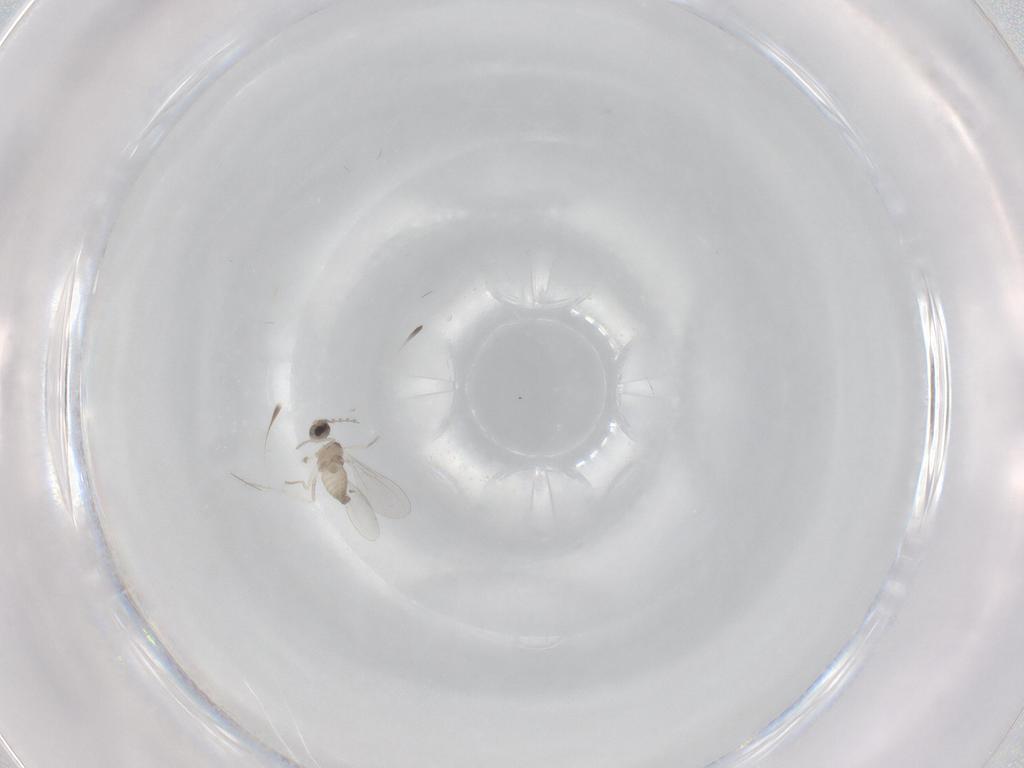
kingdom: Animalia
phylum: Arthropoda
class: Insecta
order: Diptera
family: Cecidomyiidae
